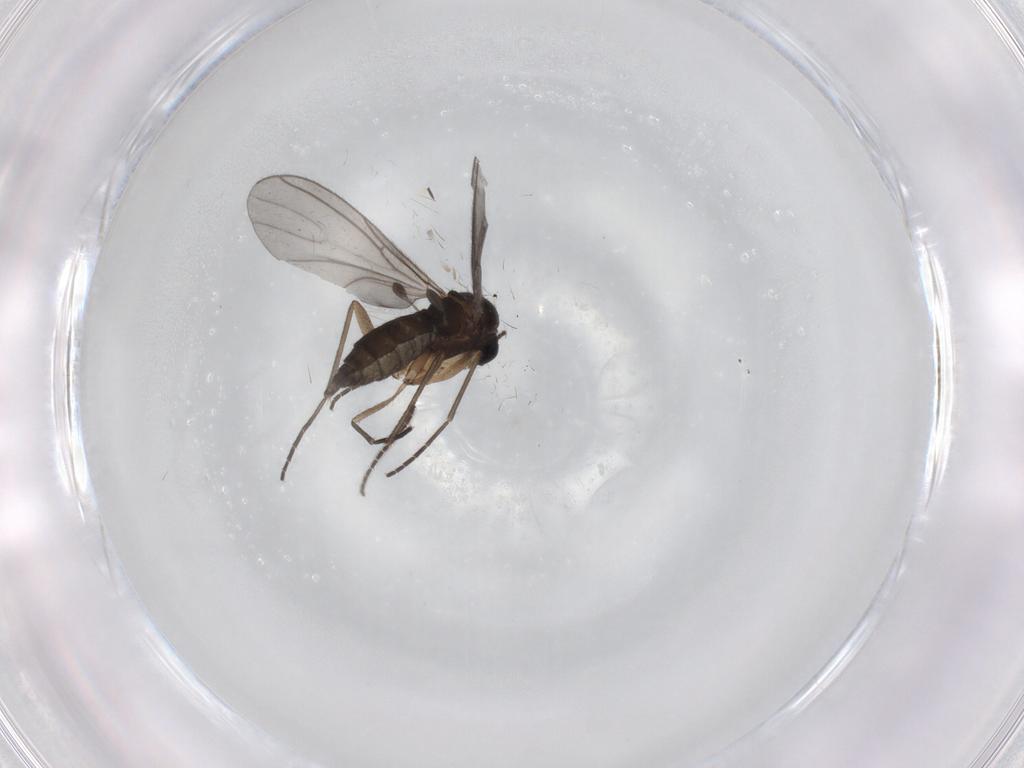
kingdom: Animalia
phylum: Arthropoda
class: Insecta
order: Diptera
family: Sciaridae
